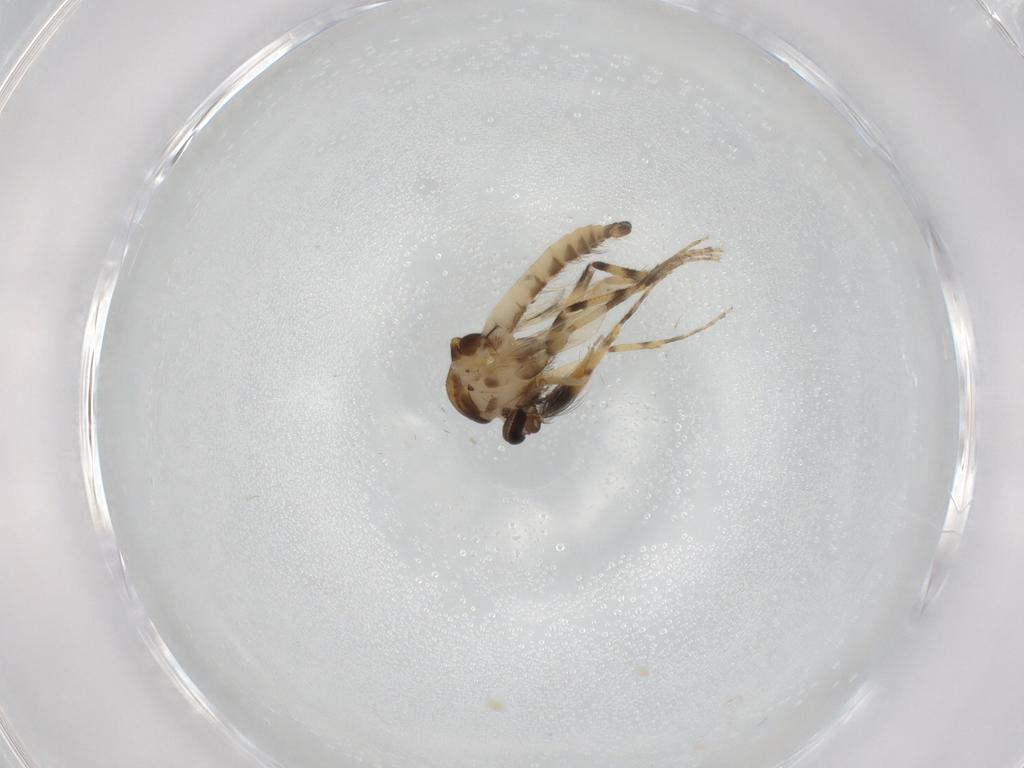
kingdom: Animalia
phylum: Arthropoda
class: Insecta
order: Diptera
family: Ceratopogonidae
